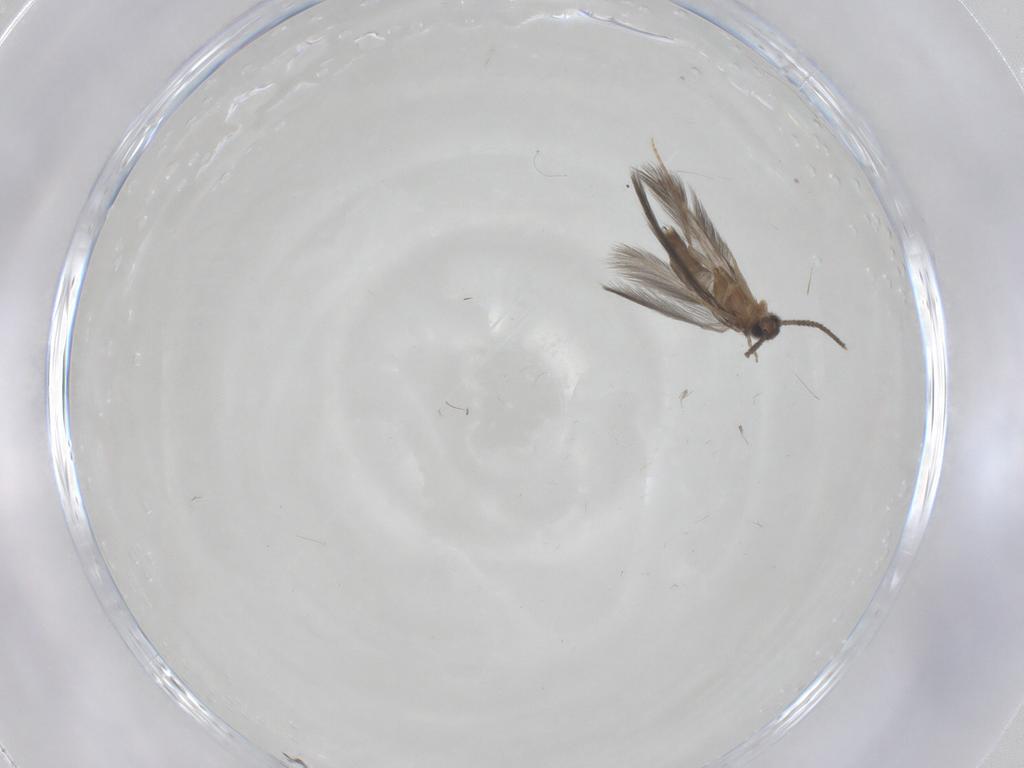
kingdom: Animalia
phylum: Arthropoda
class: Insecta
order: Trichoptera
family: Hydroptilidae
